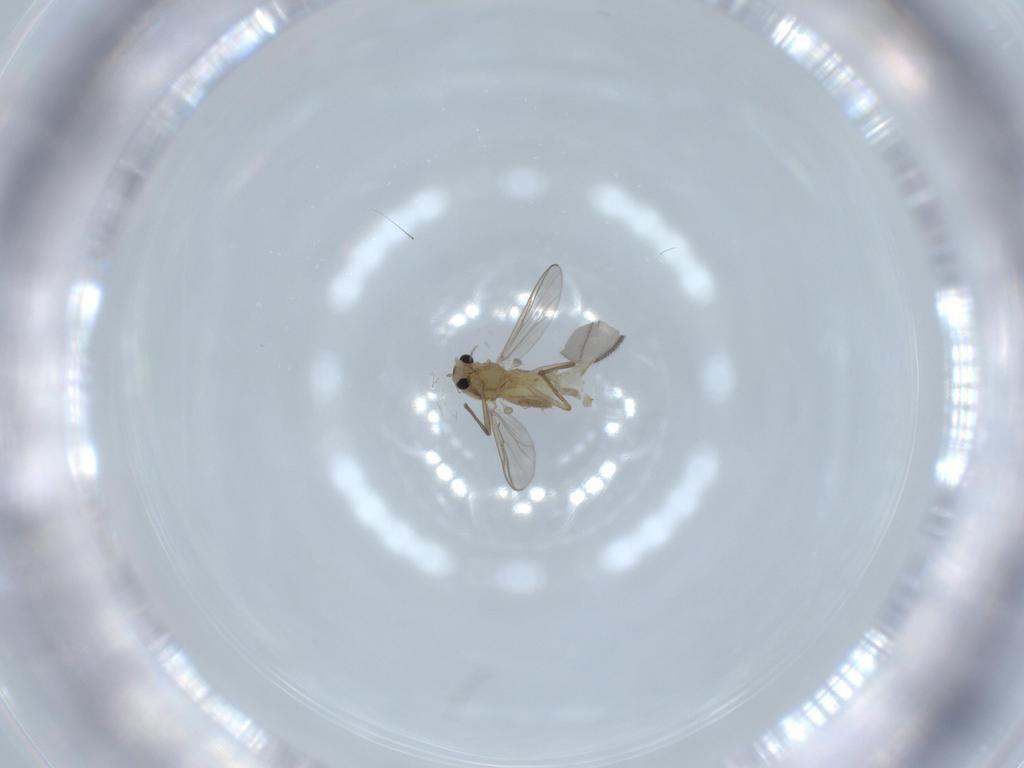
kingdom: Animalia
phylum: Arthropoda
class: Insecta
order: Diptera
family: Chironomidae
